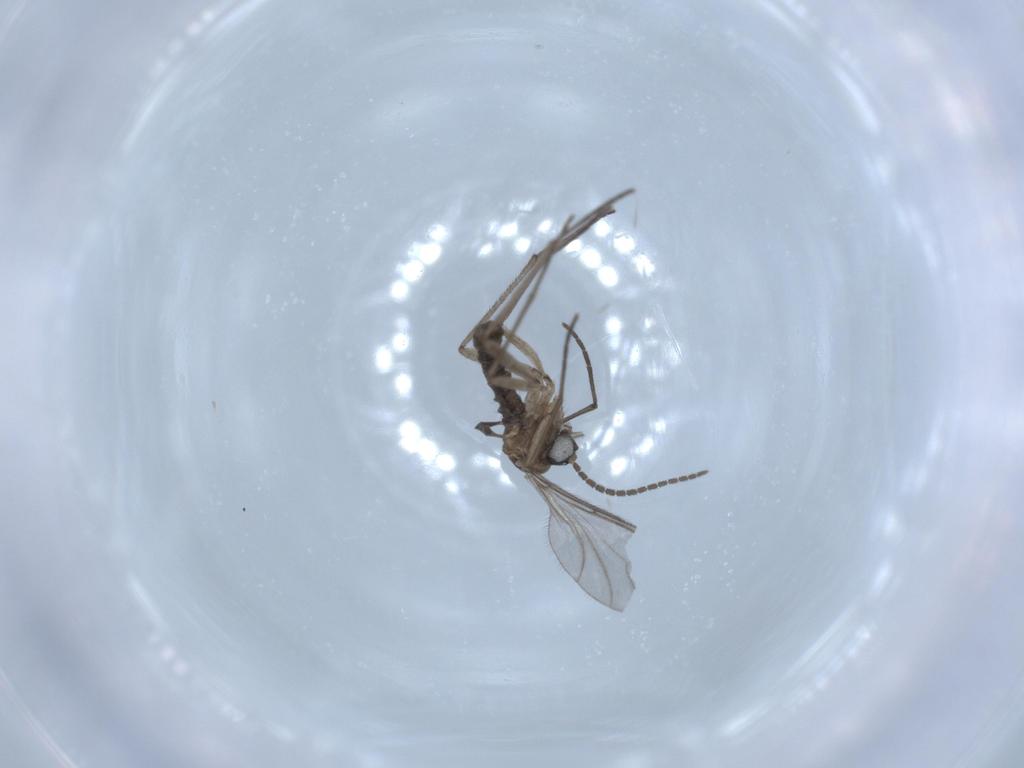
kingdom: Animalia
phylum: Arthropoda
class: Insecta
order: Diptera
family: Sciaridae
